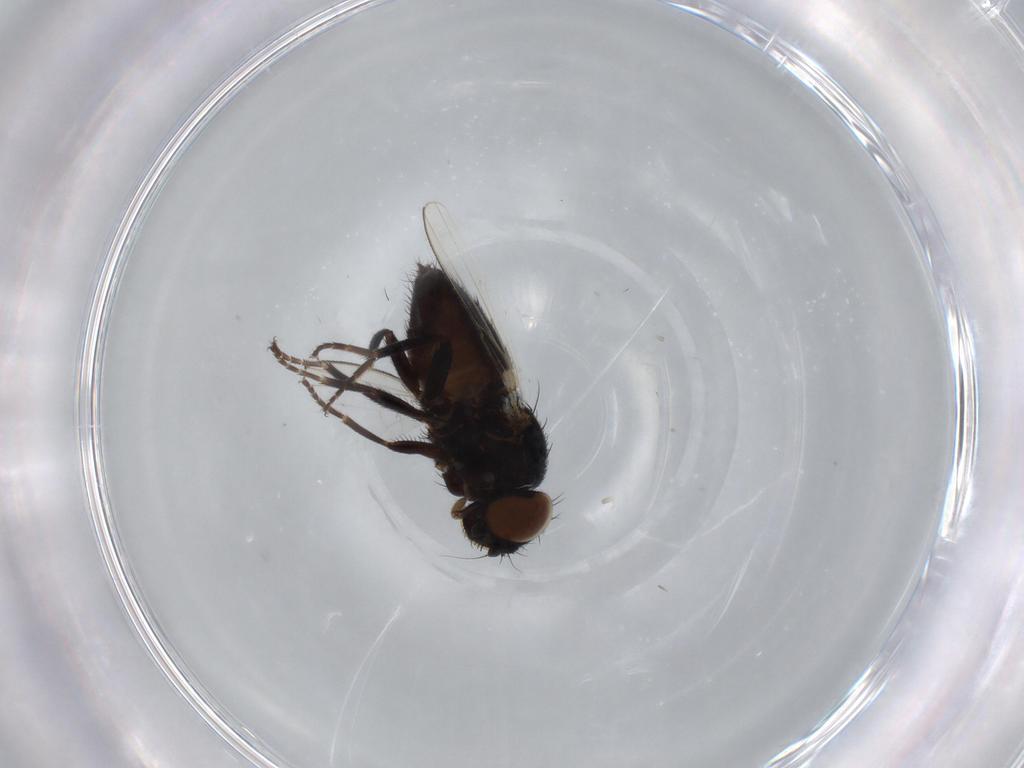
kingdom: Animalia
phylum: Arthropoda
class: Insecta
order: Diptera
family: Milichiidae
